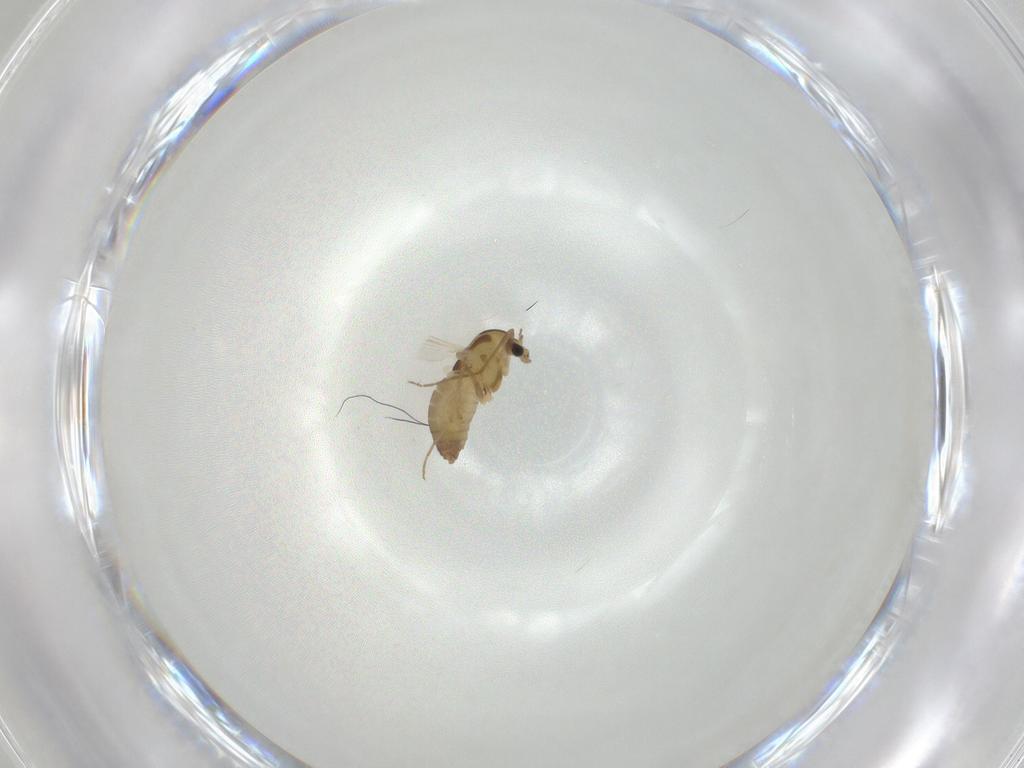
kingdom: Animalia
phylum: Arthropoda
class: Insecta
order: Diptera
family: Chironomidae
